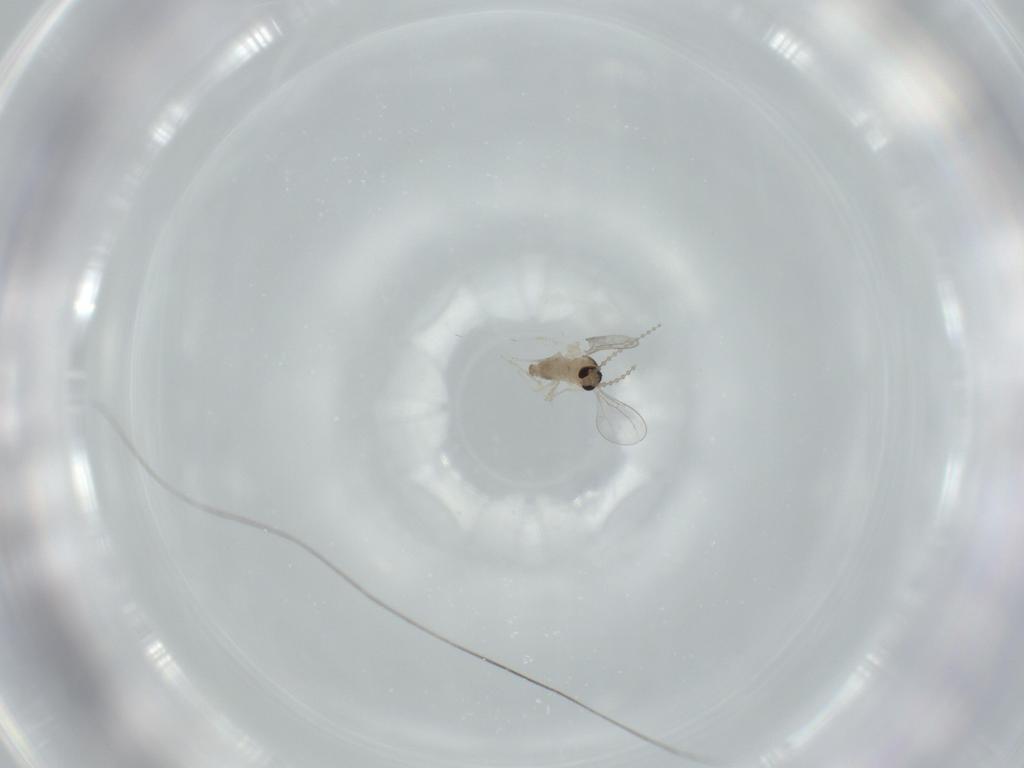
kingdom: Animalia
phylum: Arthropoda
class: Insecta
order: Diptera
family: Cecidomyiidae
